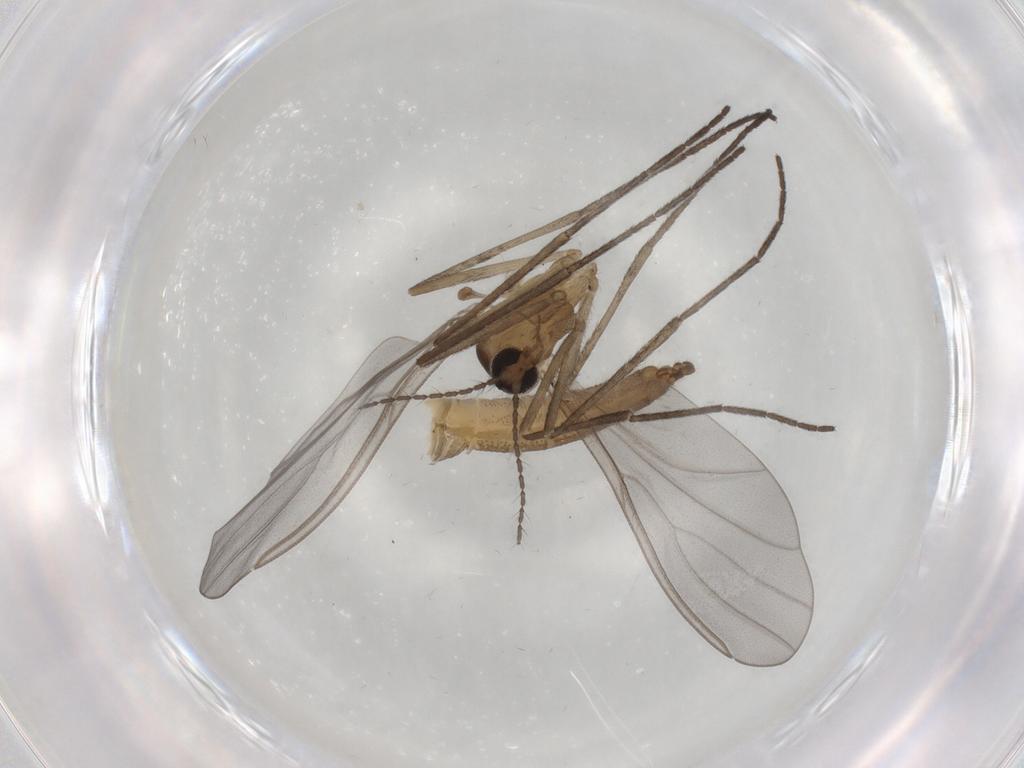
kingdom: Animalia
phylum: Arthropoda
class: Insecta
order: Diptera
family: Cecidomyiidae
